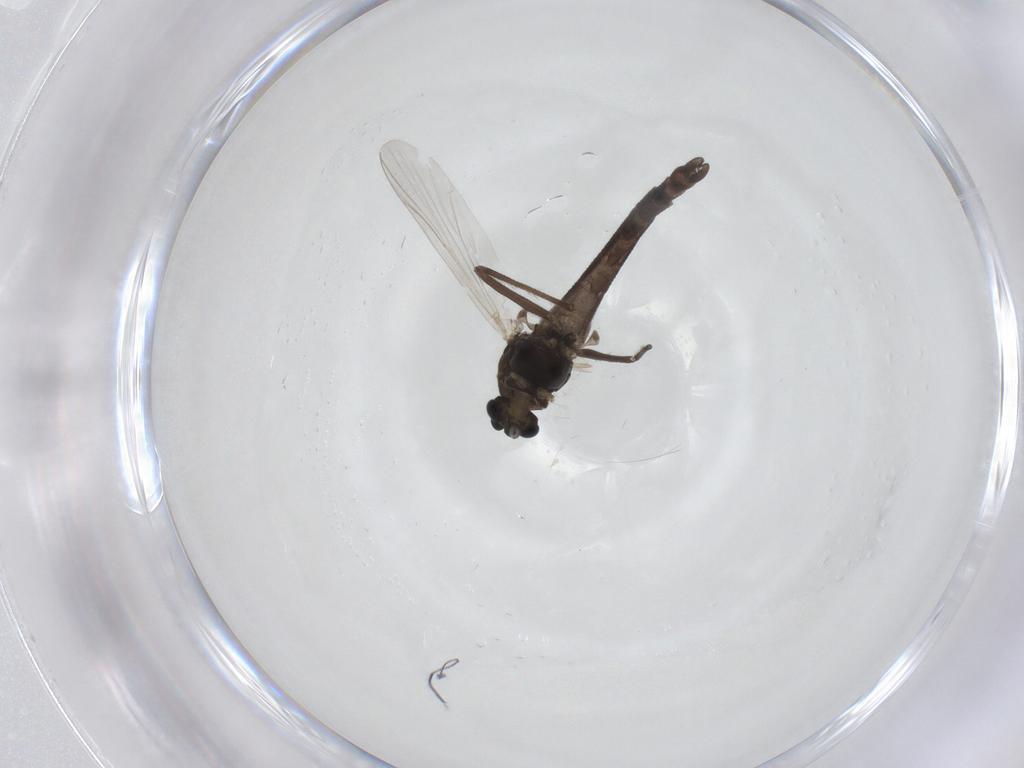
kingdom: Animalia
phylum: Arthropoda
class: Insecta
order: Diptera
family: Chironomidae
